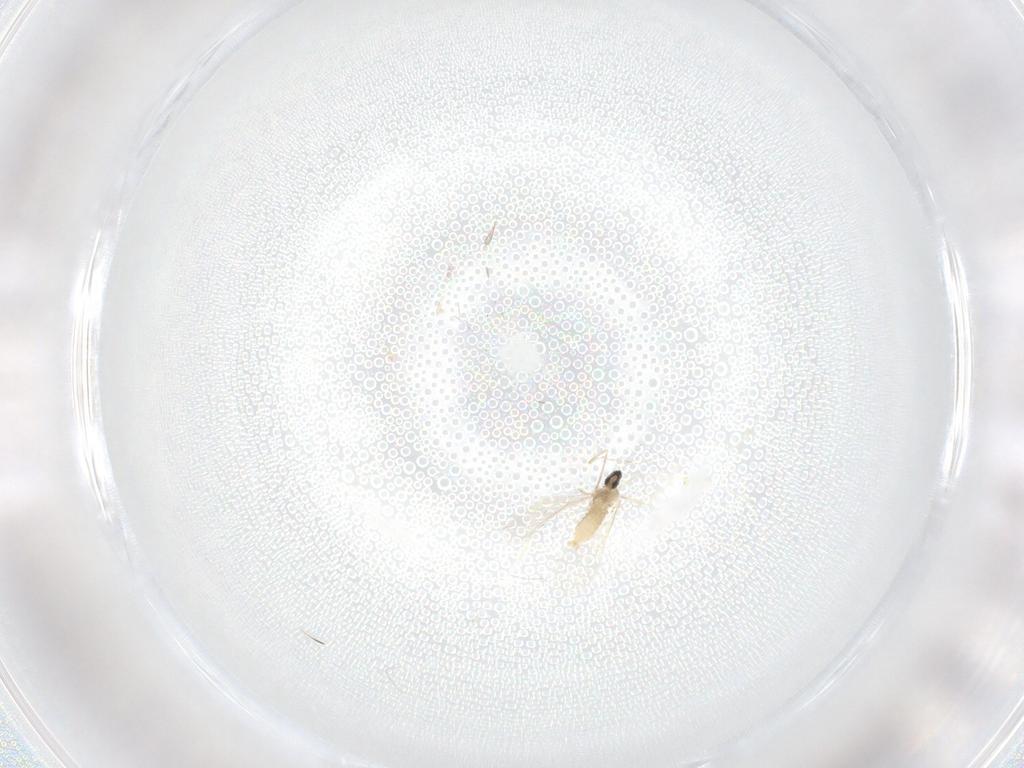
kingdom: Animalia
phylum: Arthropoda
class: Insecta
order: Diptera
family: Cecidomyiidae
